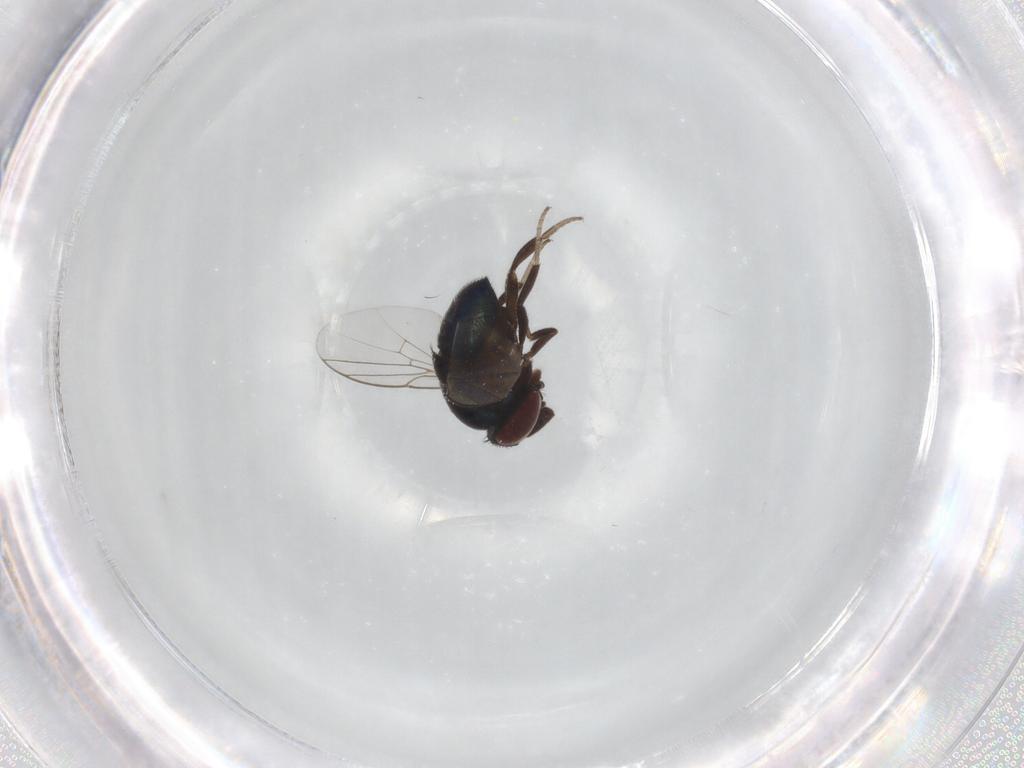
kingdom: Animalia
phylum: Arthropoda
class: Insecta
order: Diptera
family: Cryptochetidae
